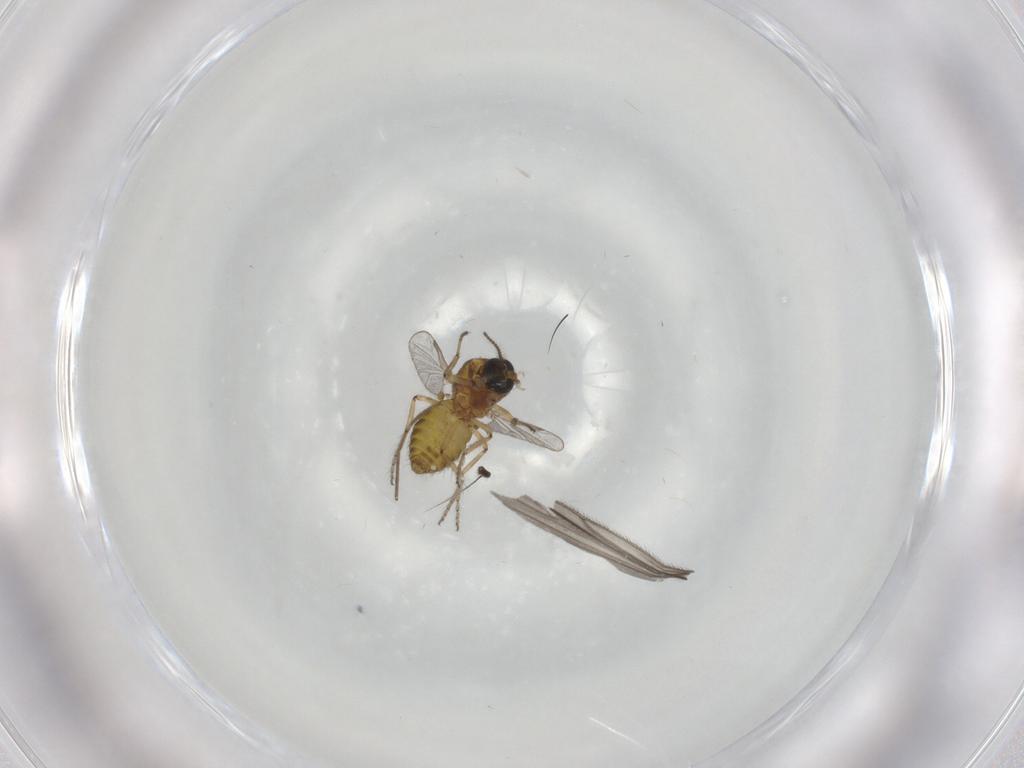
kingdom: Animalia
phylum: Arthropoda
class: Insecta
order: Diptera
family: Ceratopogonidae
